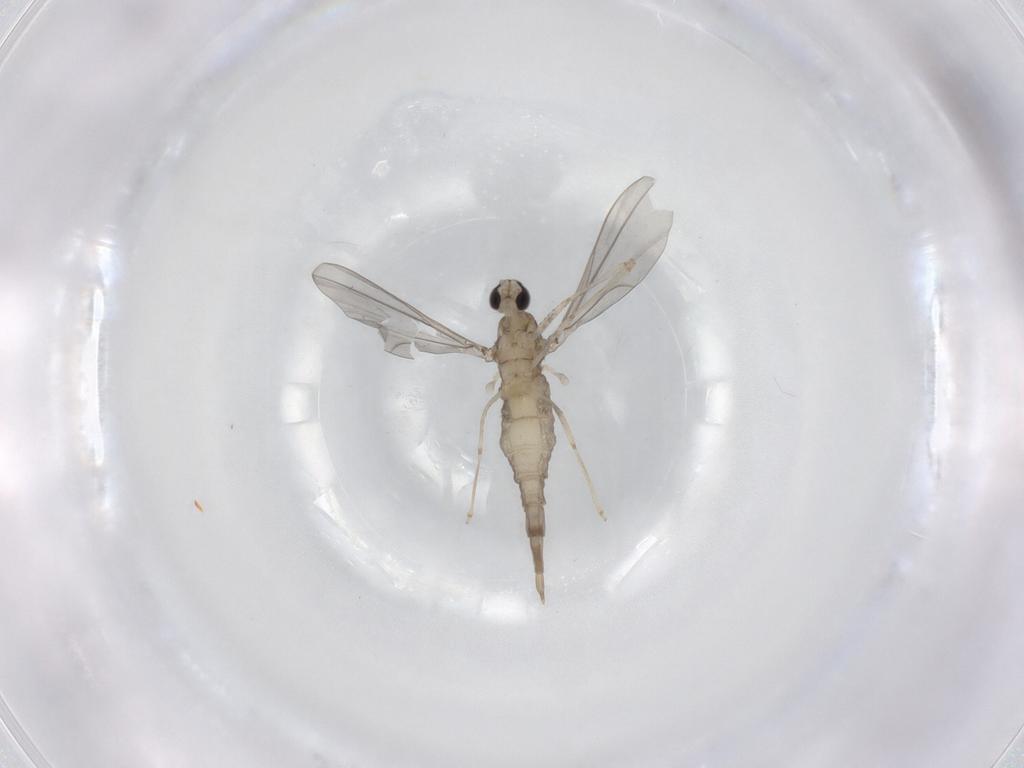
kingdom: Animalia
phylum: Arthropoda
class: Insecta
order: Diptera
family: Cecidomyiidae
